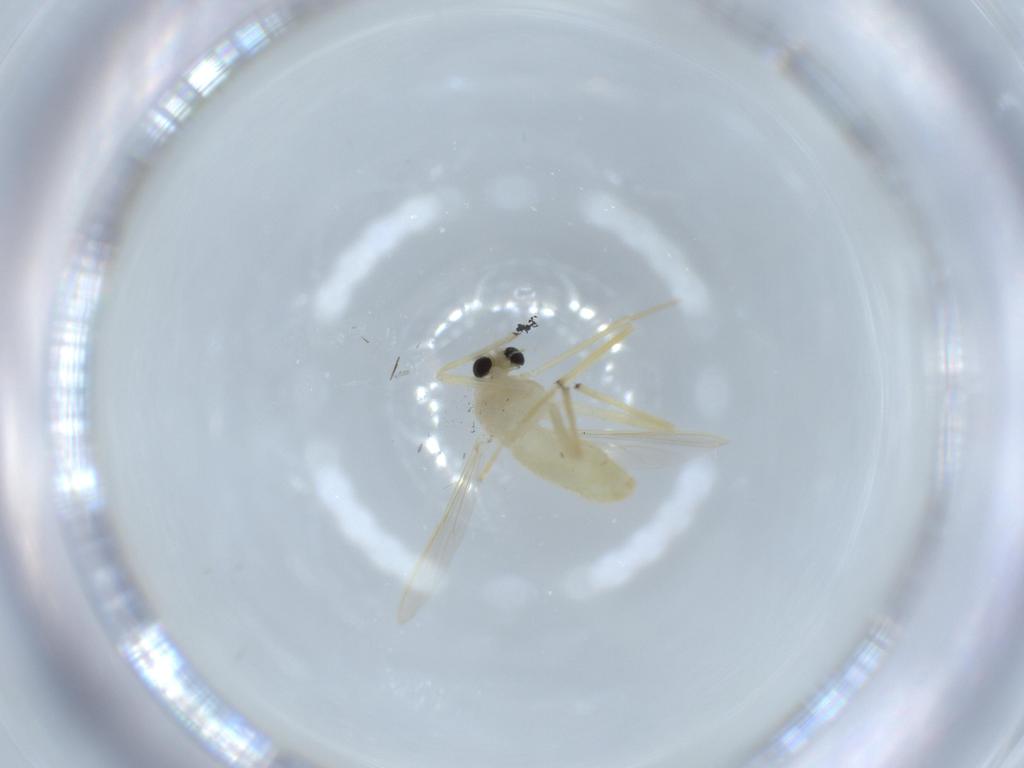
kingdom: Animalia
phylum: Arthropoda
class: Insecta
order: Diptera
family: Chironomidae
